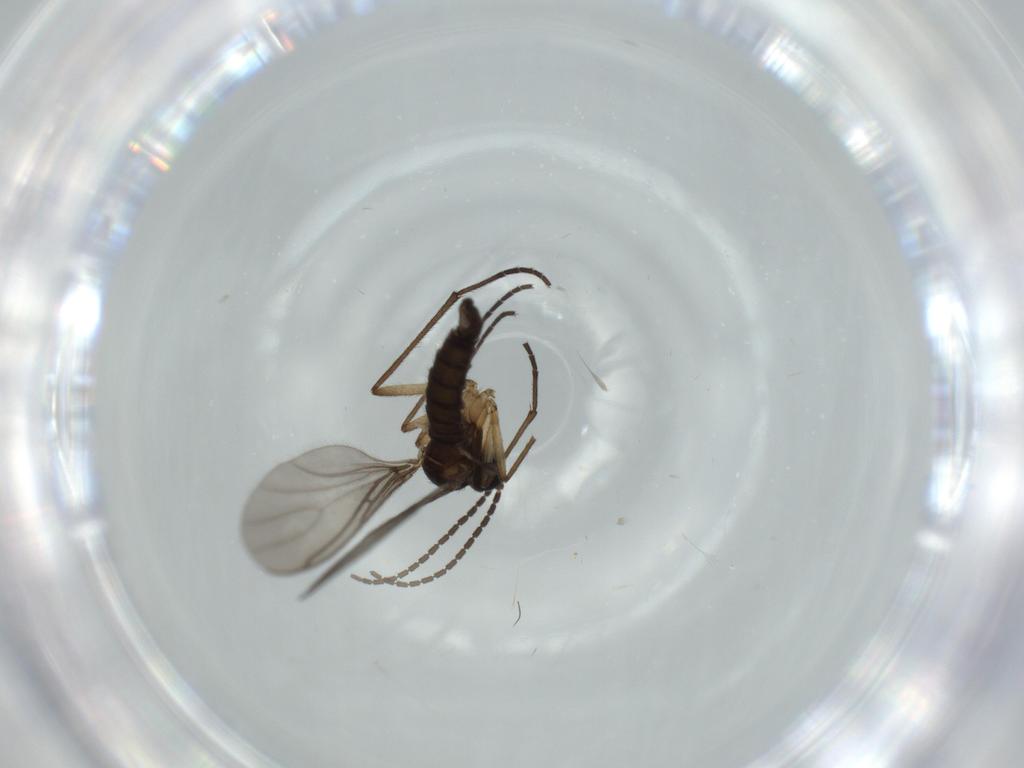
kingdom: Animalia
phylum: Arthropoda
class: Insecta
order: Diptera
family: Sciaridae
